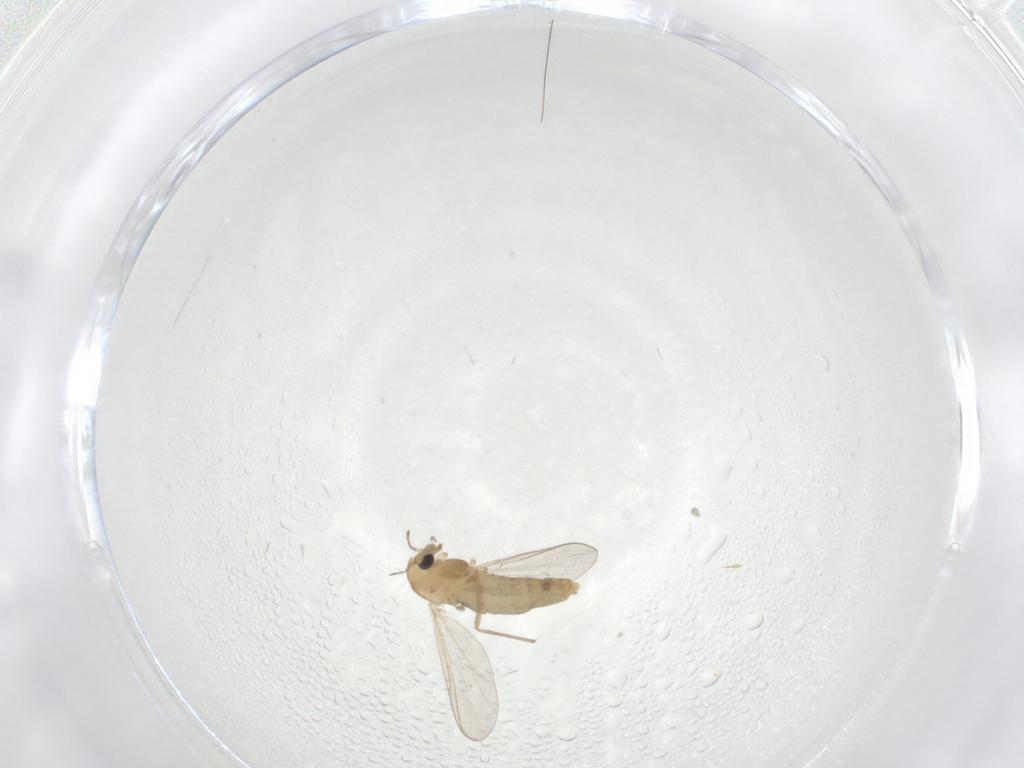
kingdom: Animalia
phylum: Arthropoda
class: Insecta
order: Diptera
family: Chironomidae
